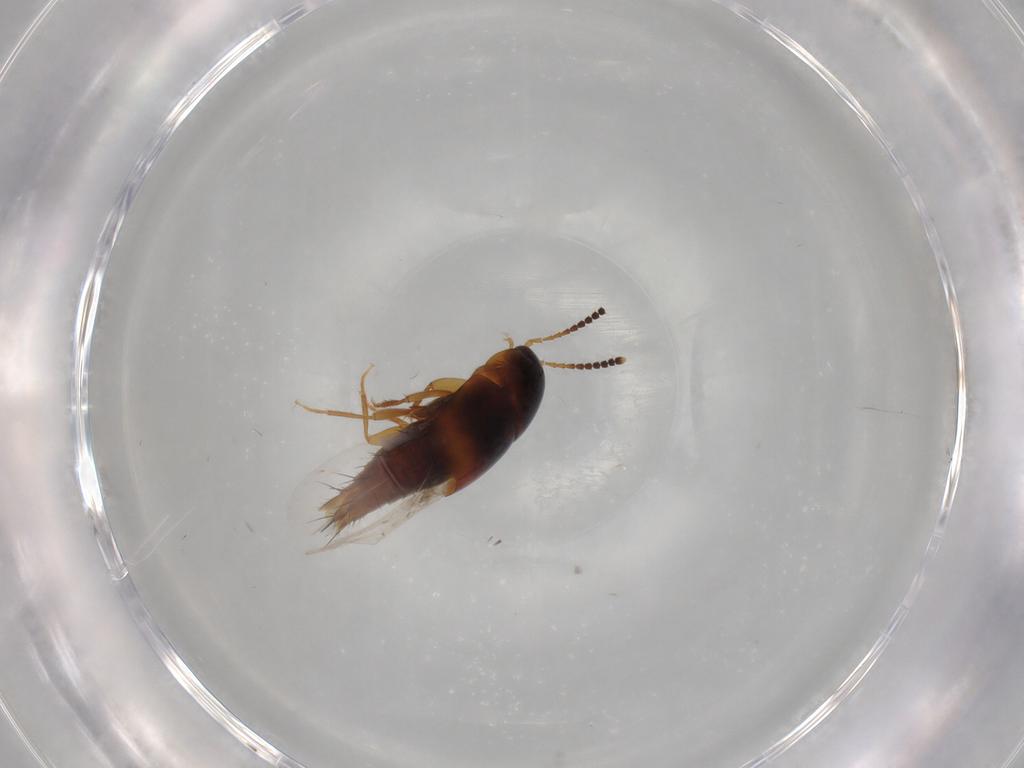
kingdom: Animalia
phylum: Arthropoda
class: Insecta
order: Coleoptera
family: Staphylinidae
